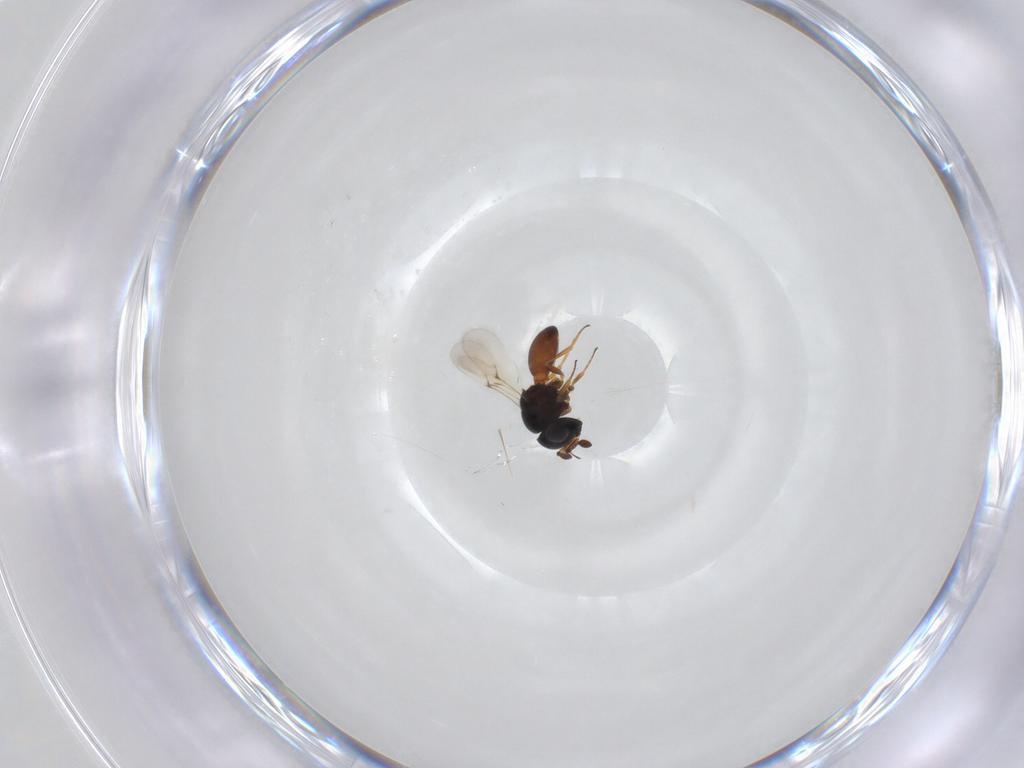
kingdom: Animalia
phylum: Arthropoda
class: Insecta
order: Hymenoptera
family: Scelionidae
